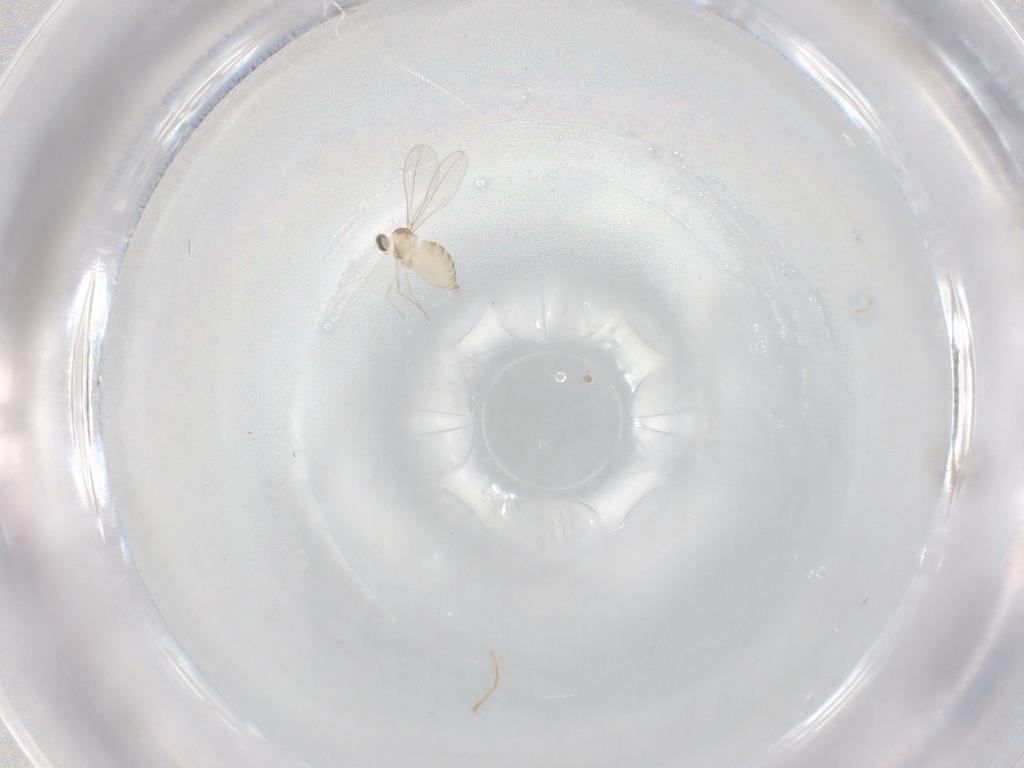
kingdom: Animalia
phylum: Arthropoda
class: Insecta
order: Diptera
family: Cecidomyiidae
